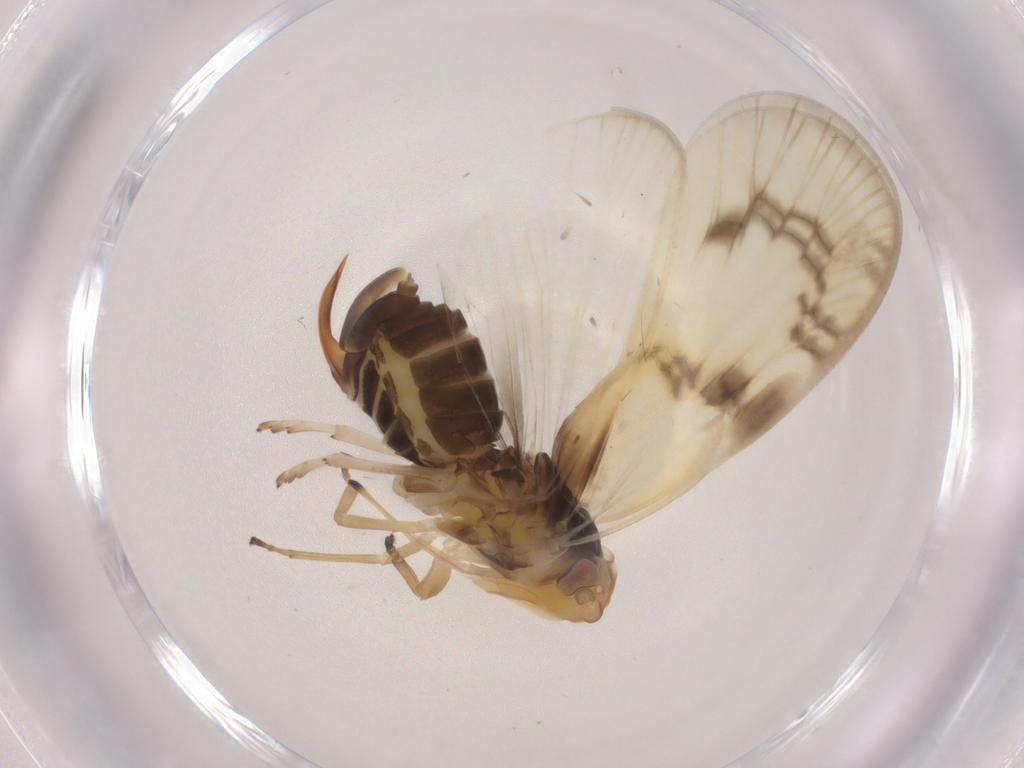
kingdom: Animalia
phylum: Arthropoda
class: Insecta
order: Hemiptera
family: Cixiidae
